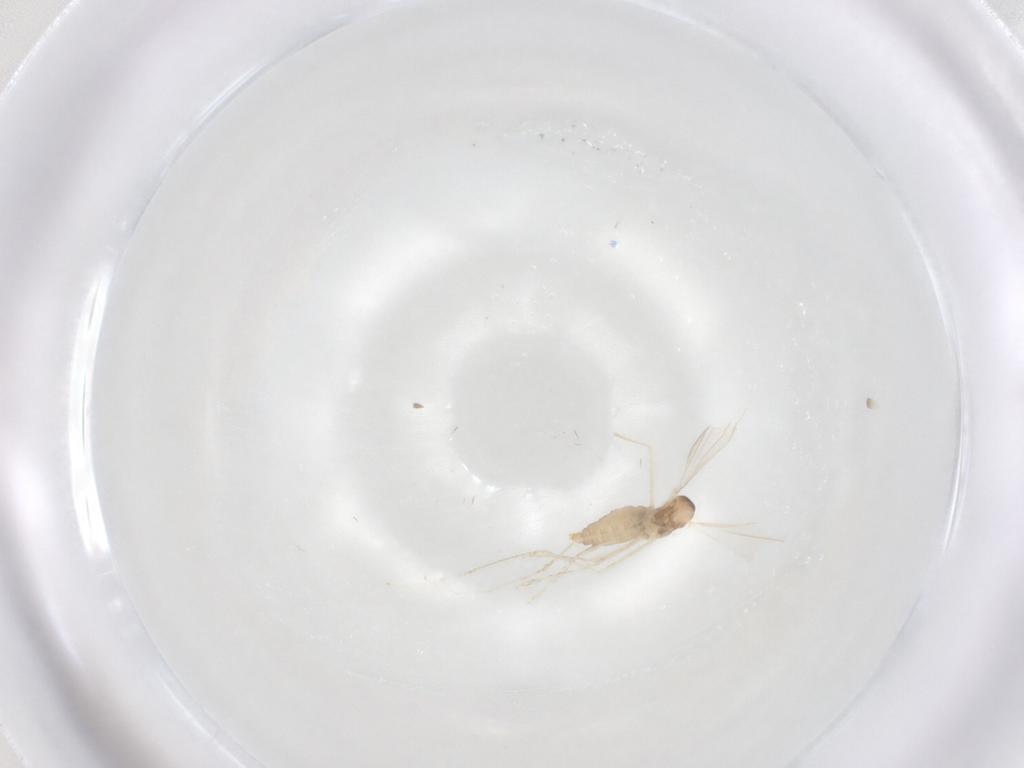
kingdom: Animalia
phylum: Arthropoda
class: Insecta
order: Diptera
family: Cecidomyiidae
